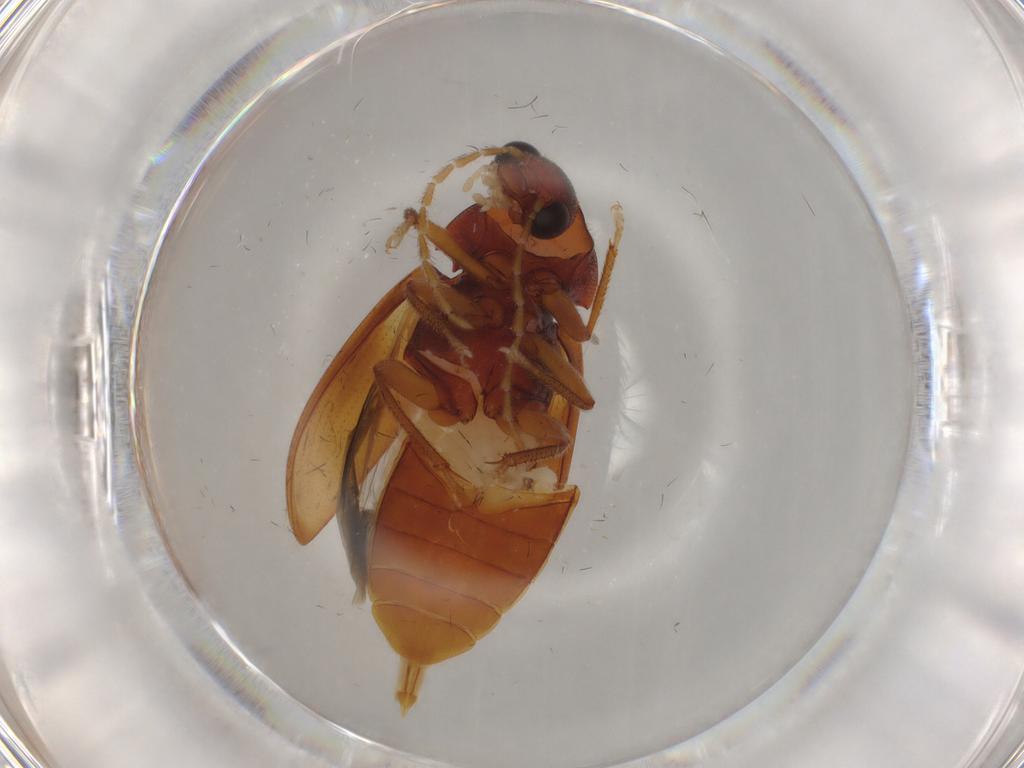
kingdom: Animalia
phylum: Arthropoda
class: Insecta
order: Coleoptera
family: Ptilodactylidae
